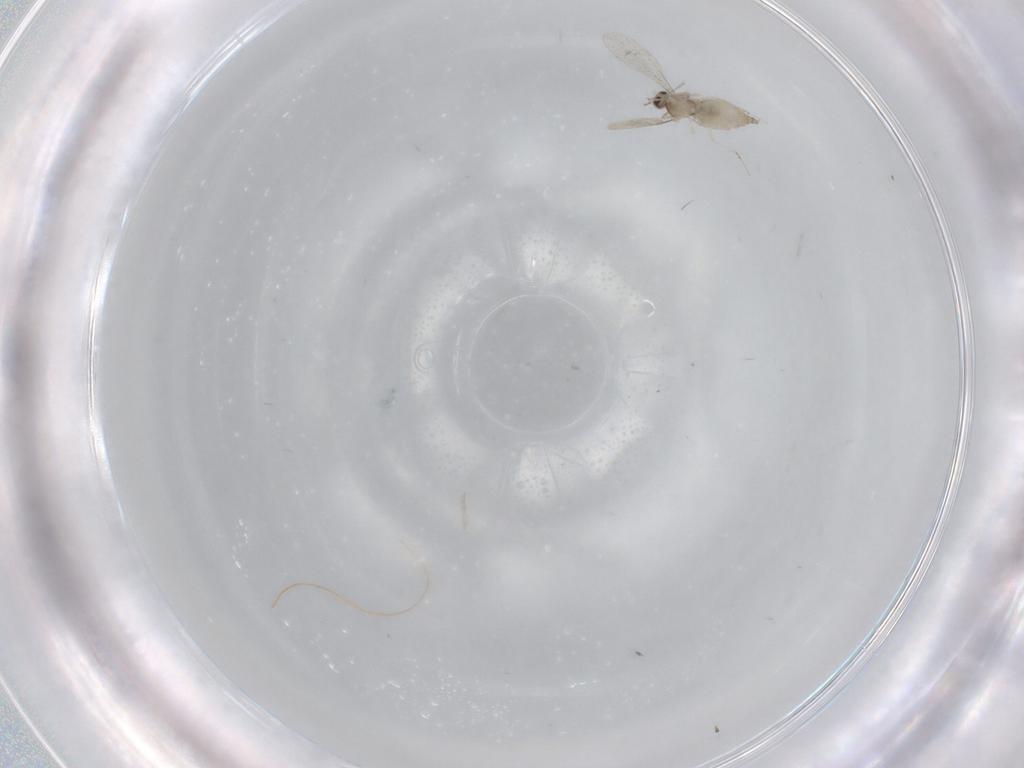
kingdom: Animalia
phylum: Arthropoda
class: Insecta
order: Diptera
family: Cecidomyiidae
